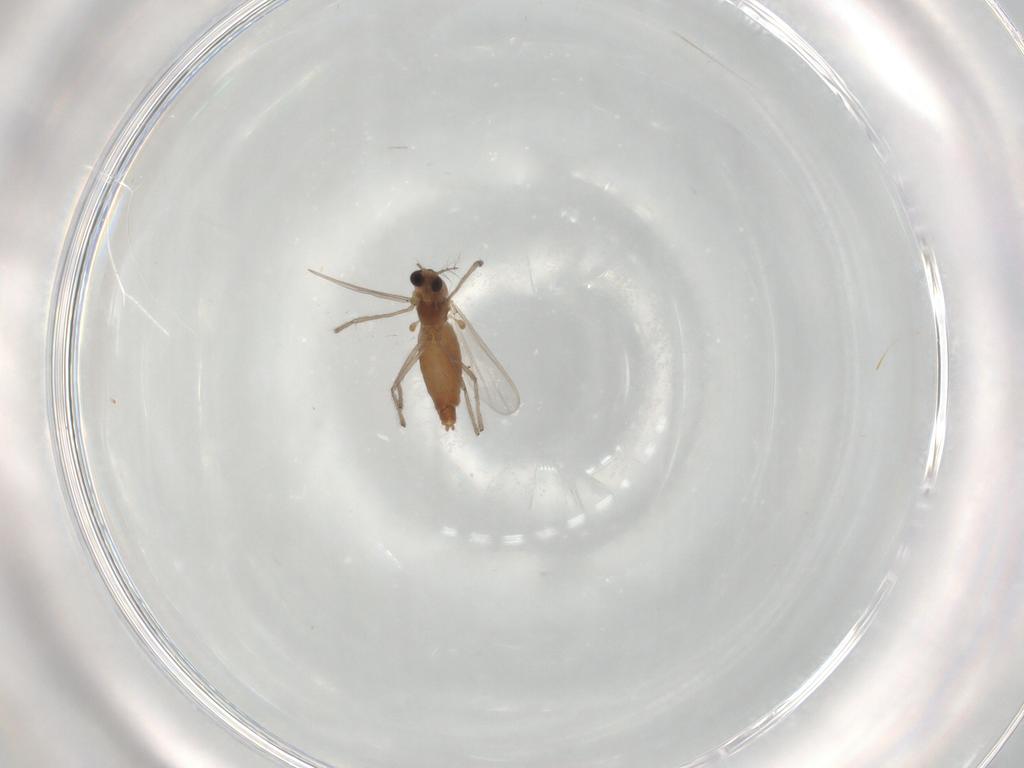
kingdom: Animalia
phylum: Arthropoda
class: Insecta
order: Diptera
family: Chironomidae
